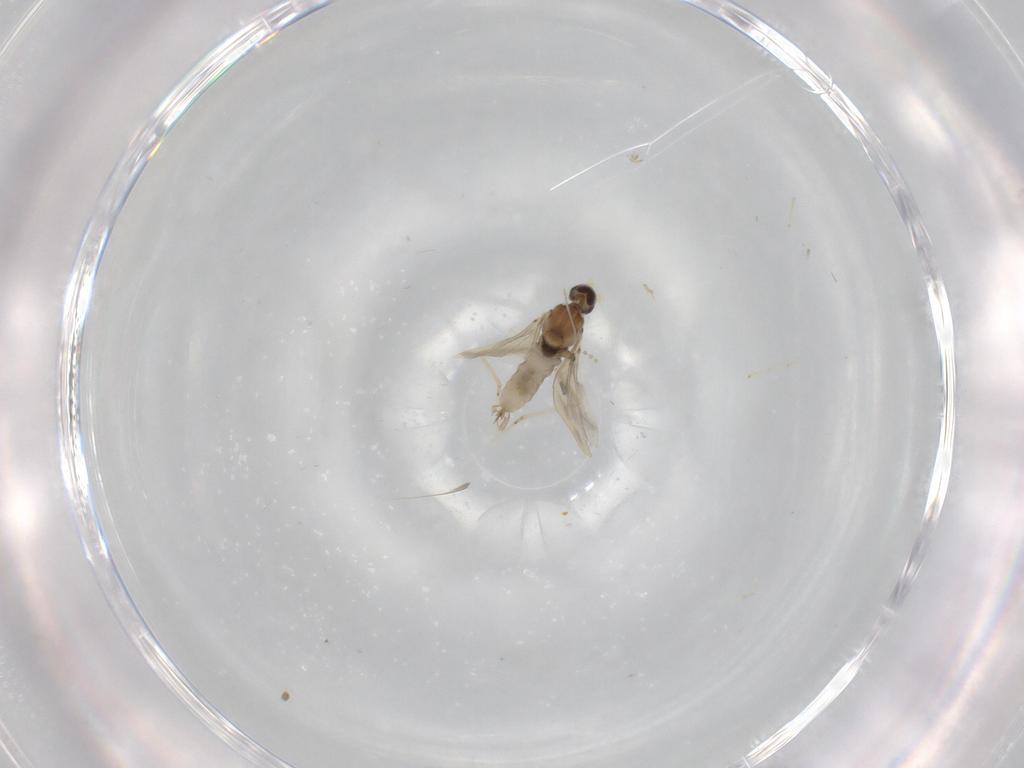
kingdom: Animalia
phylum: Arthropoda
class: Insecta
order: Diptera
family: Cecidomyiidae
